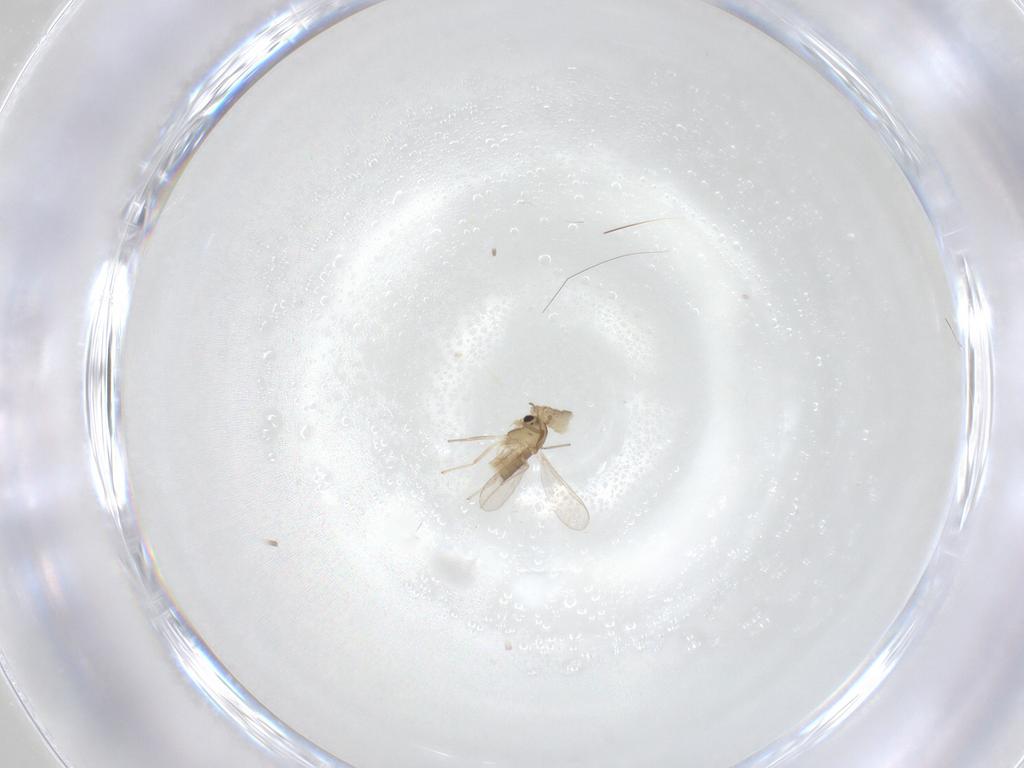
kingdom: Animalia
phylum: Arthropoda
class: Insecta
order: Diptera
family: Chironomidae
